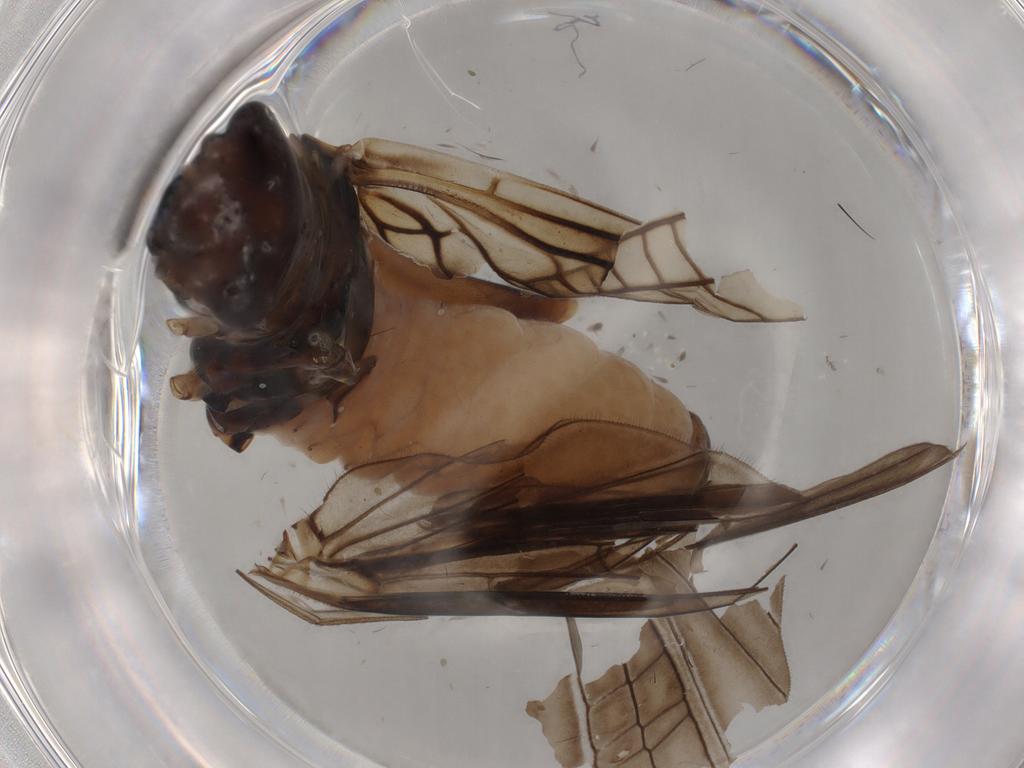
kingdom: Animalia
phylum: Arthropoda
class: Insecta
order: Plecoptera
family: Nemouridae
